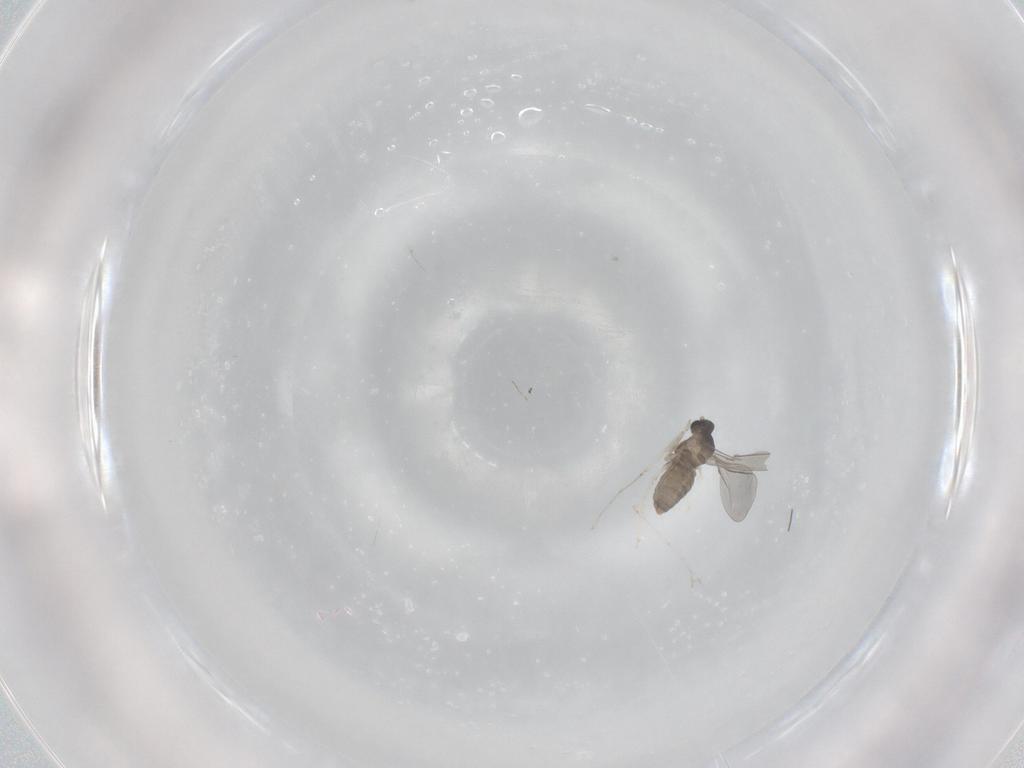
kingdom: Animalia
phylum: Arthropoda
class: Insecta
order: Diptera
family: Cecidomyiidae
